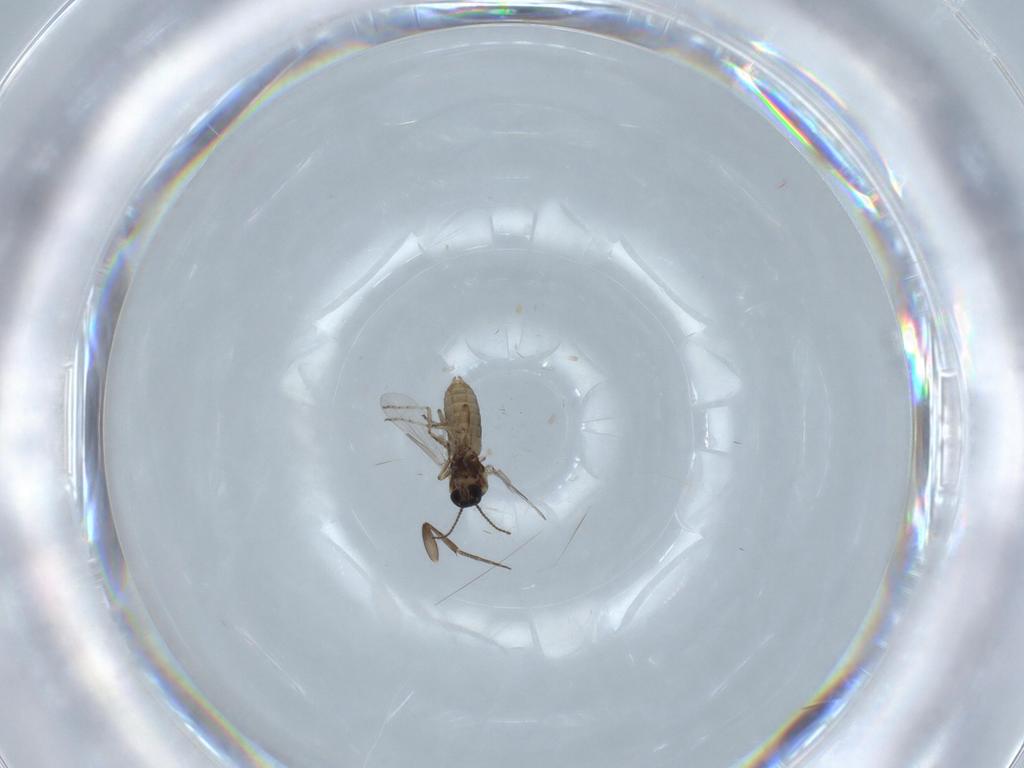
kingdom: Animalia
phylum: Arthropoda
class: Insecta
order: Diptera
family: Ceratopogonidae
